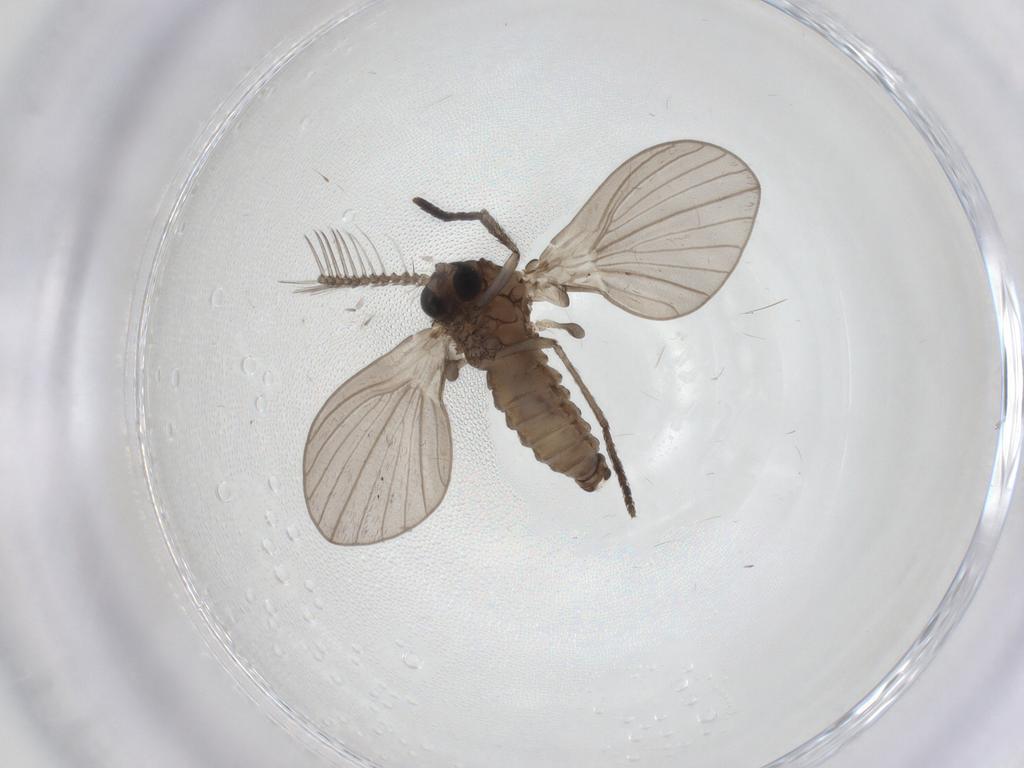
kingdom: Animalia
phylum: Arthropoda
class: Insecta
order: Diptera
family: Psychodidae
